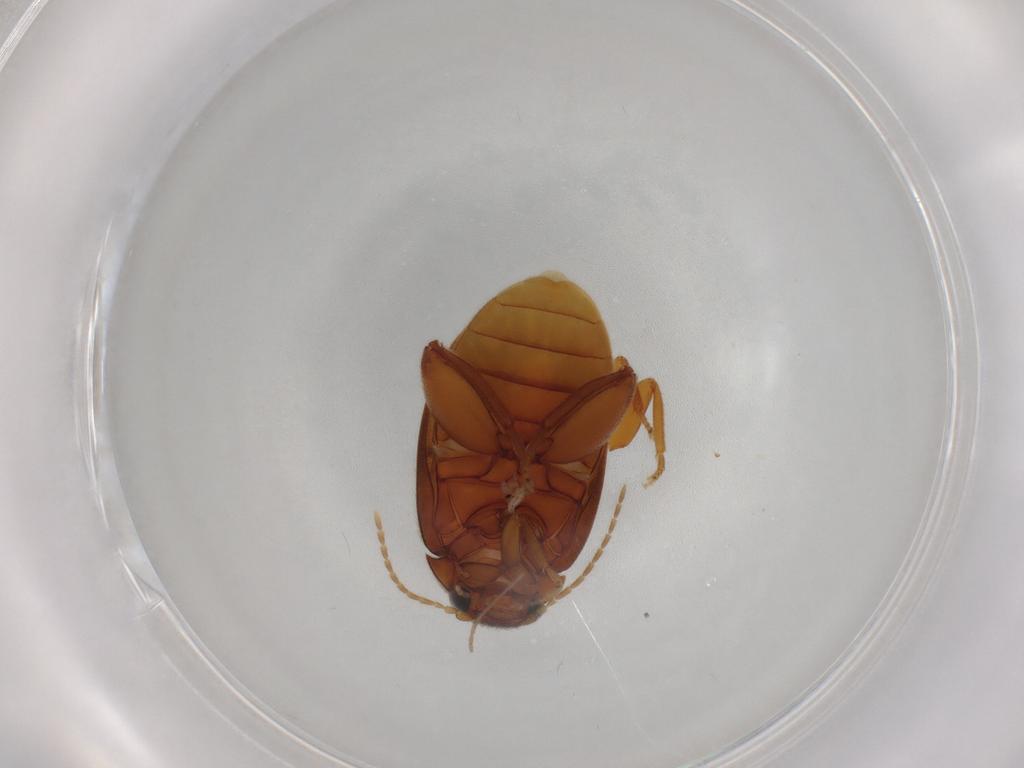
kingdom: Animalia
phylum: Arthropoda
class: Insecta
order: Coleoptera
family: Scirtidae
